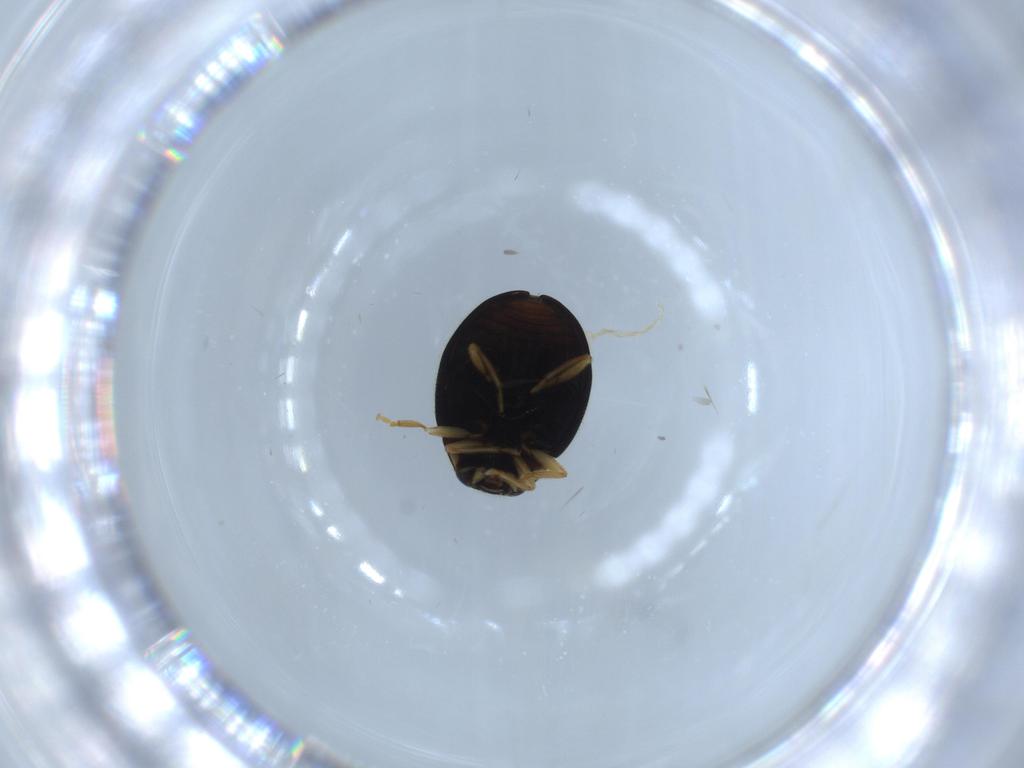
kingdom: Animalia
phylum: Arthropoda
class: Insecta
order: Coleoptera
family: Coccinellidae
